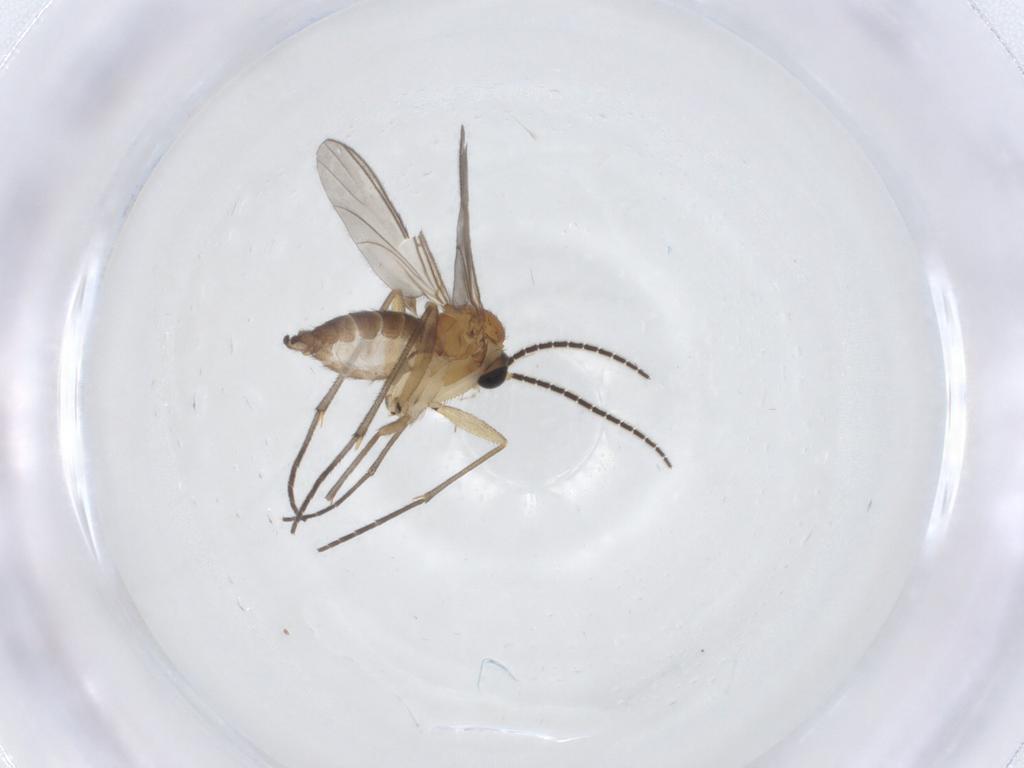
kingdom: Animalia
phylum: Arthropoda
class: Insecta
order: Diptera
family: Sciaridae
